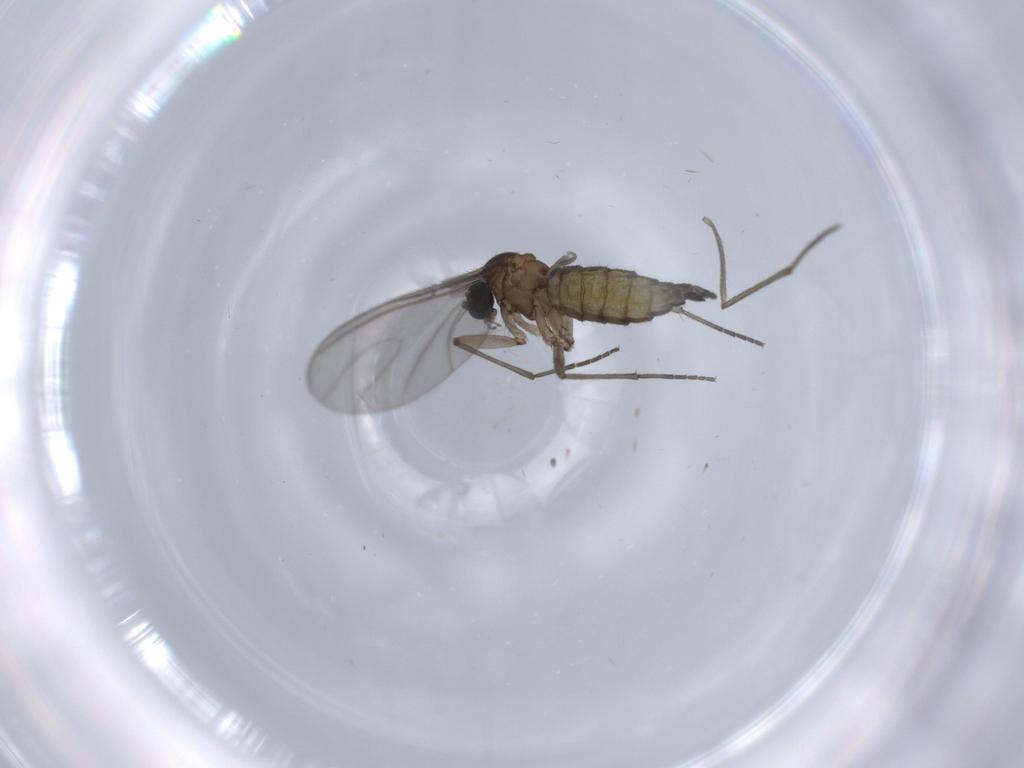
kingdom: Animalia
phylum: Arthropoda
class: Insecta
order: Diptera
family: Sciaridae
